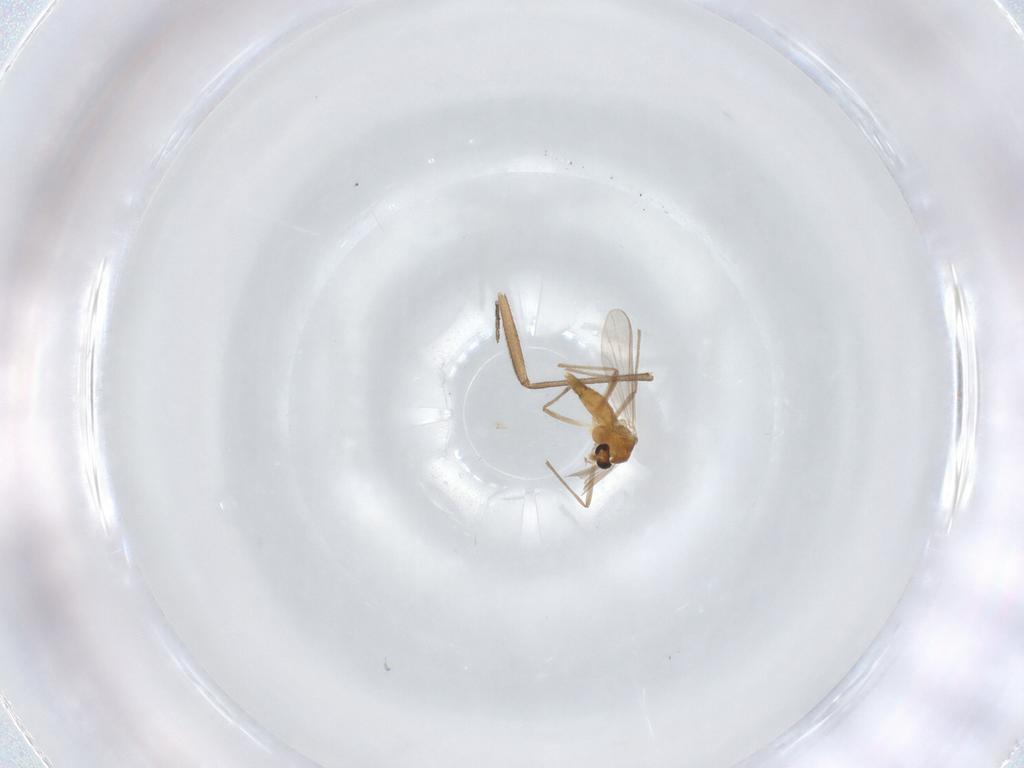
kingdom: Animalia
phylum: Arthropoda
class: Insecta
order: Diptera
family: Sciaridae
